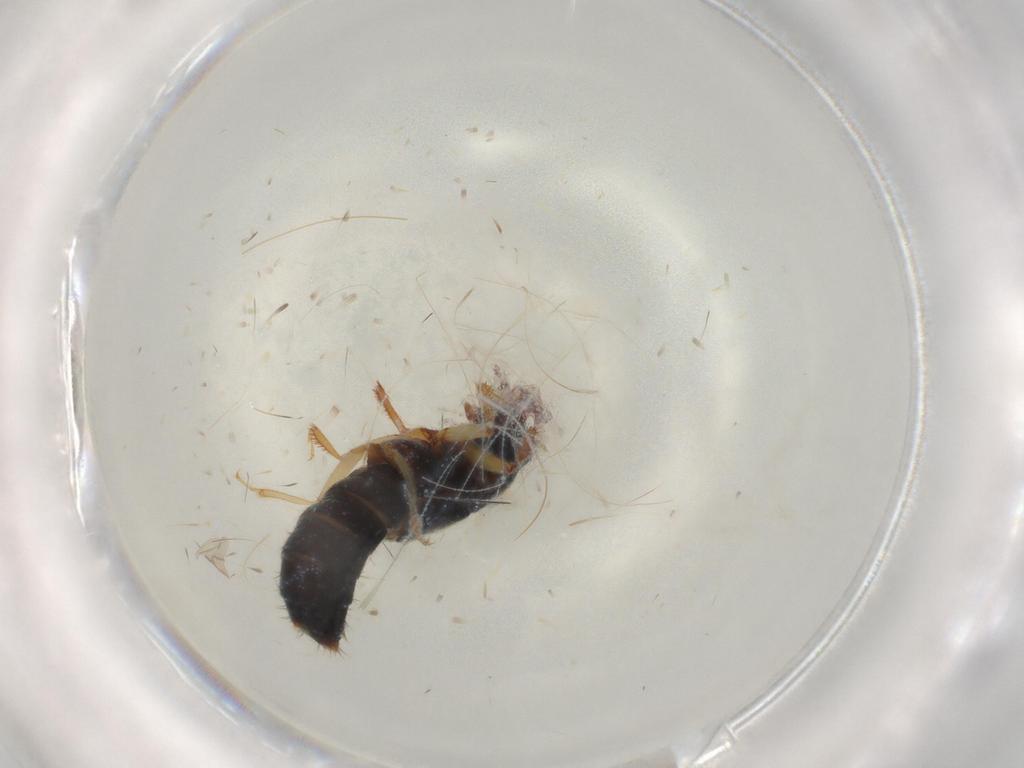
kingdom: Animalia
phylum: Arthropoda
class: Insecta
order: Coleoptera
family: Staphylinidae
